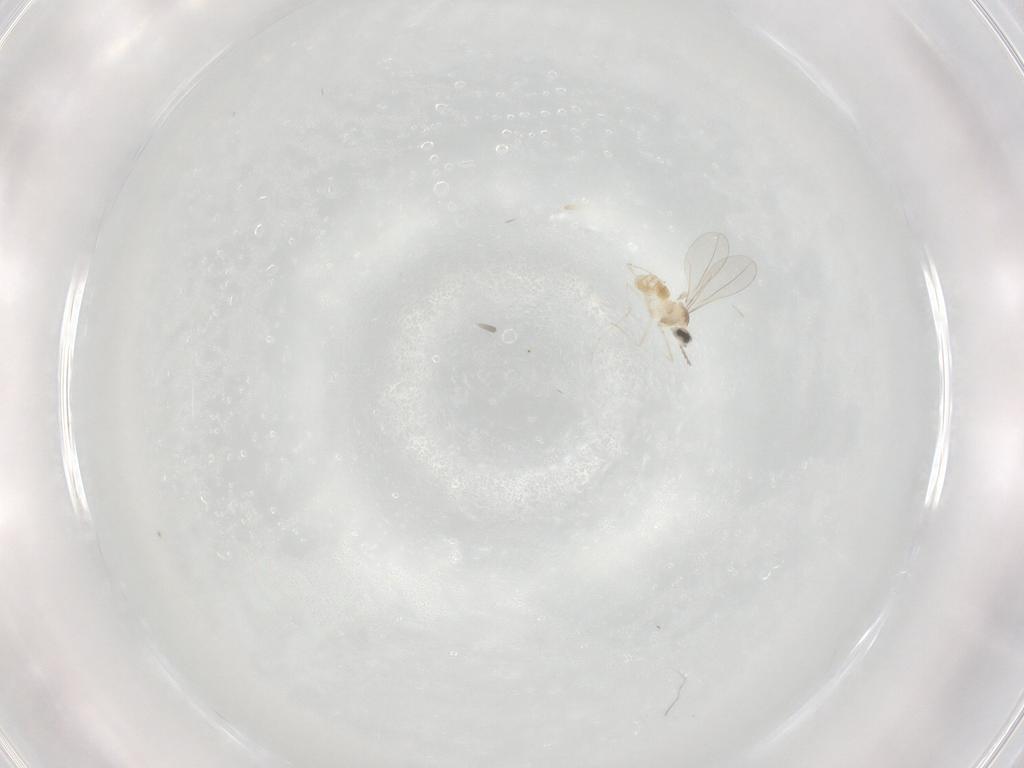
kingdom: Animalia
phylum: Arthropoda
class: Insecta
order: Diptera
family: Cecidomyiidae
